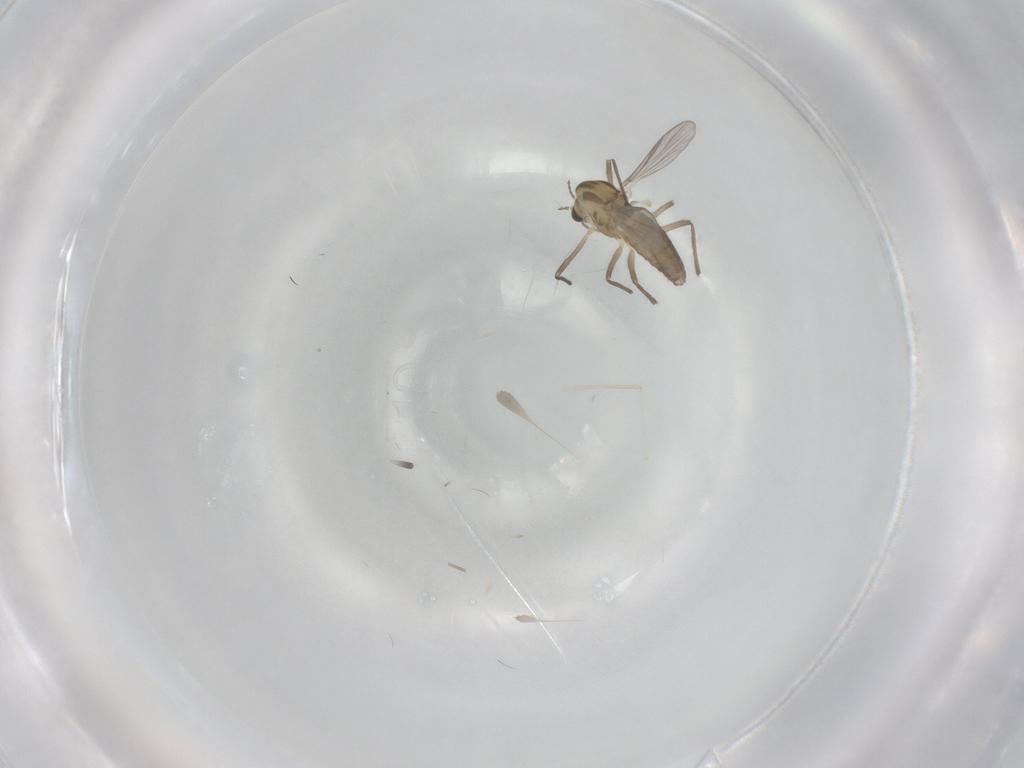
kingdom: Animalia
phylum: Arthropoda
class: Insecta
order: Diptera
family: Chironomidae
